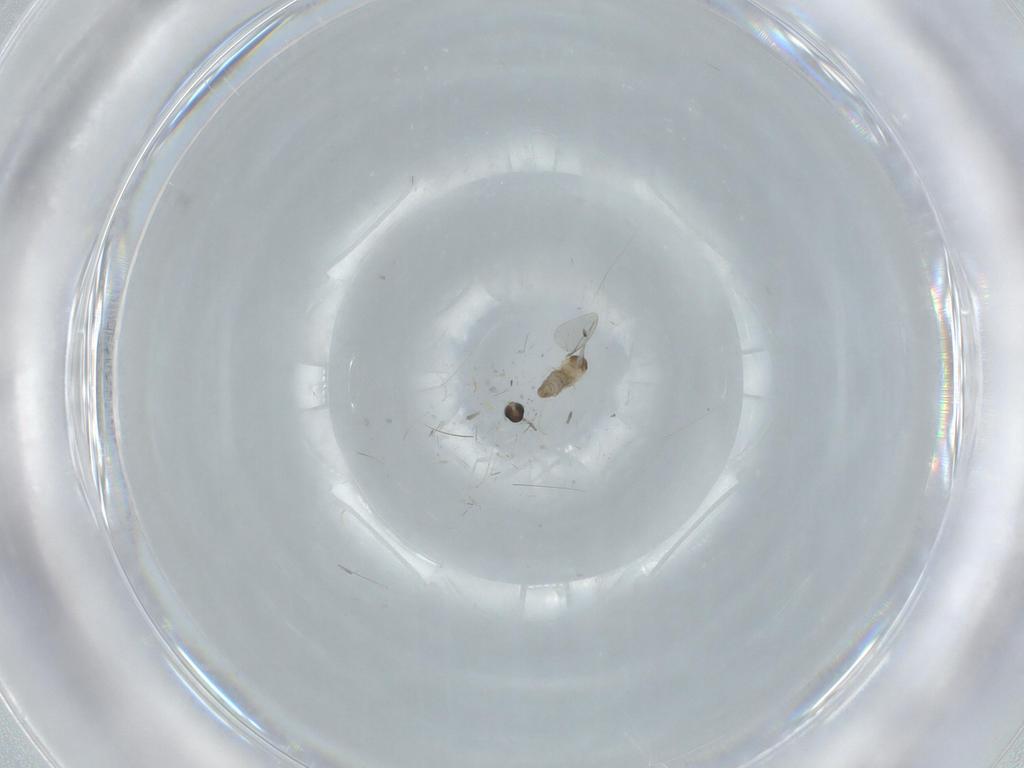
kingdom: Animalia
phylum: Arthropoda
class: Insecta
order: Diptera
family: Cecidomyiidae
